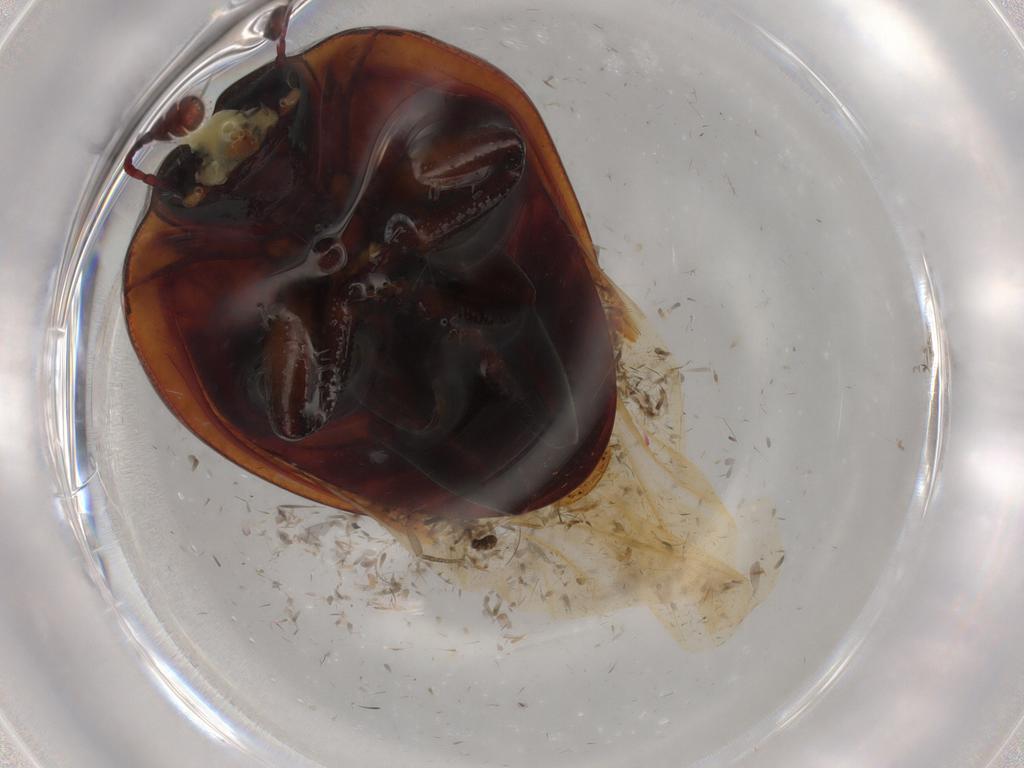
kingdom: Animalia
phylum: Arthropoda
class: Insecta
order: Coleoptera
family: Zopheridae
